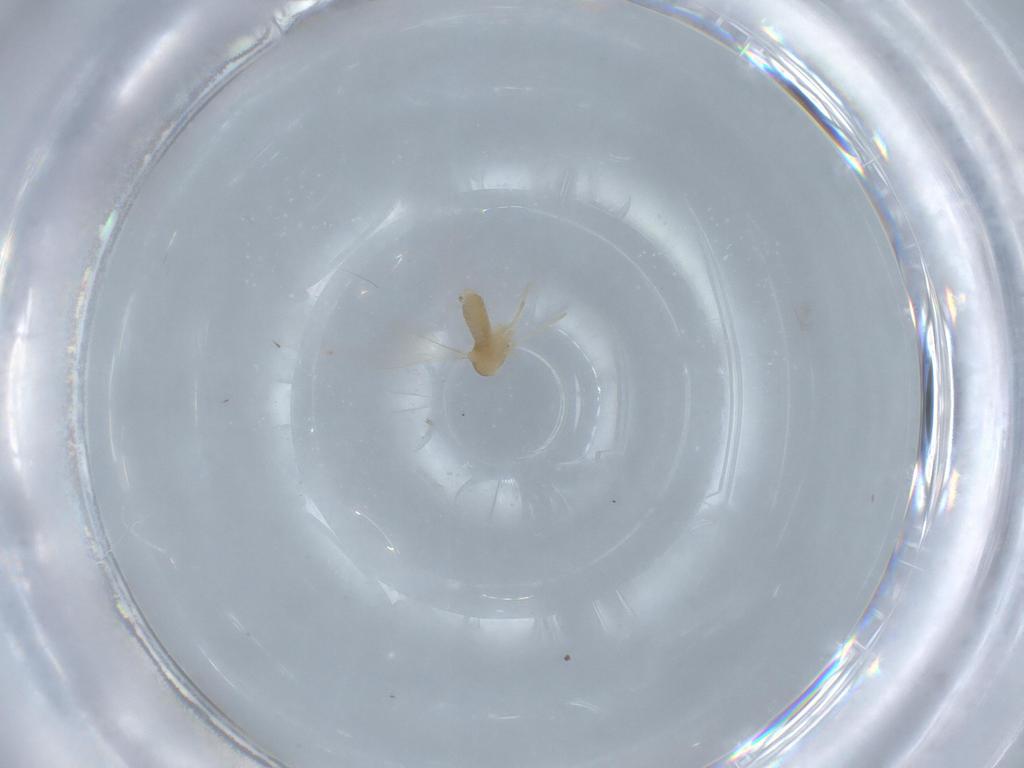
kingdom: Animalia
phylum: Arthropoda
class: Insecta
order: Diptera
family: Cecidomyiidae
